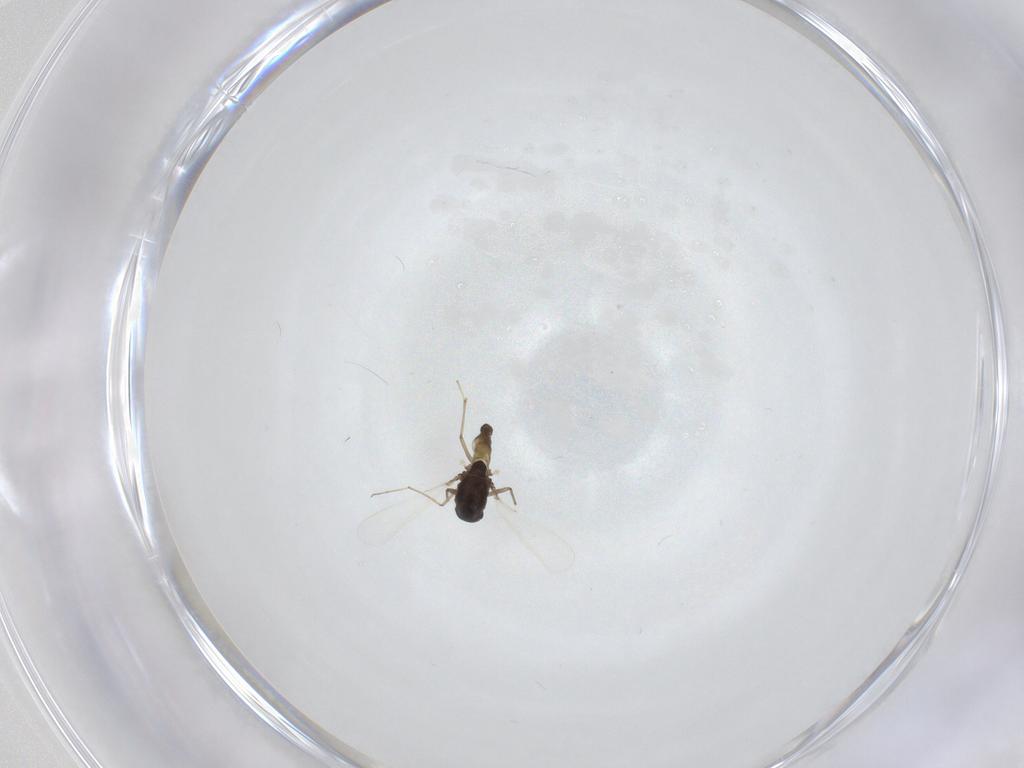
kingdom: Animalia
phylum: Arthropoda
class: Insecta
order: Diptera
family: Chironomidae
